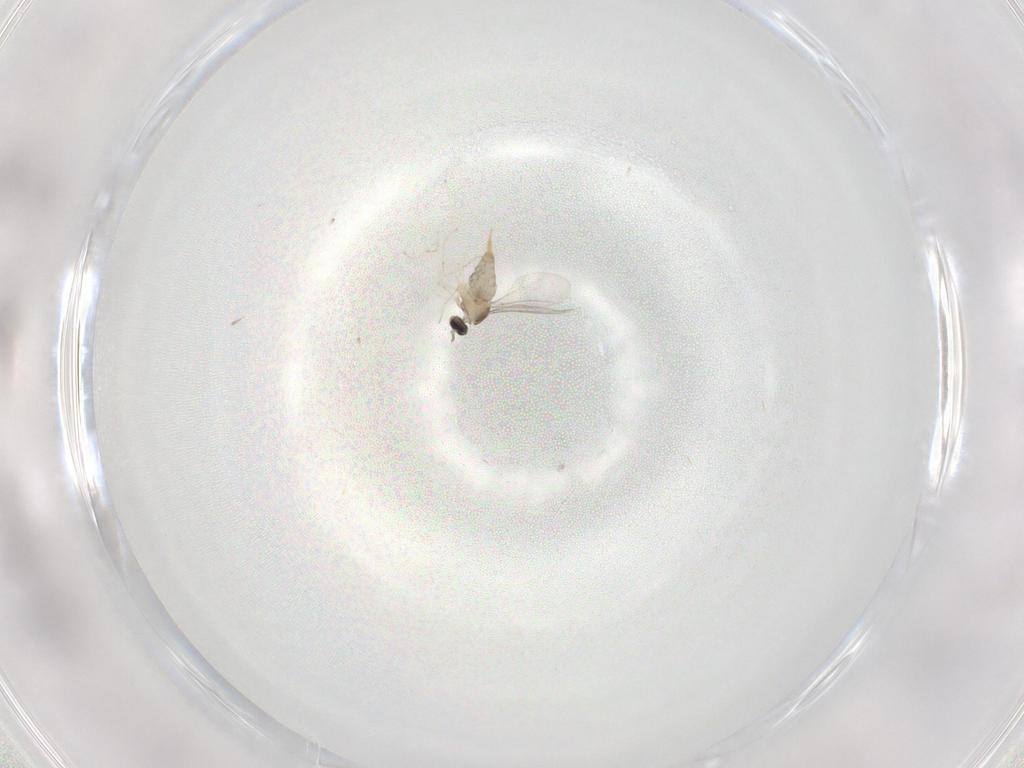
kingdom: Animalia
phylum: Arthropoda
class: Insecta
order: Diptera
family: Cecidomyiidae
